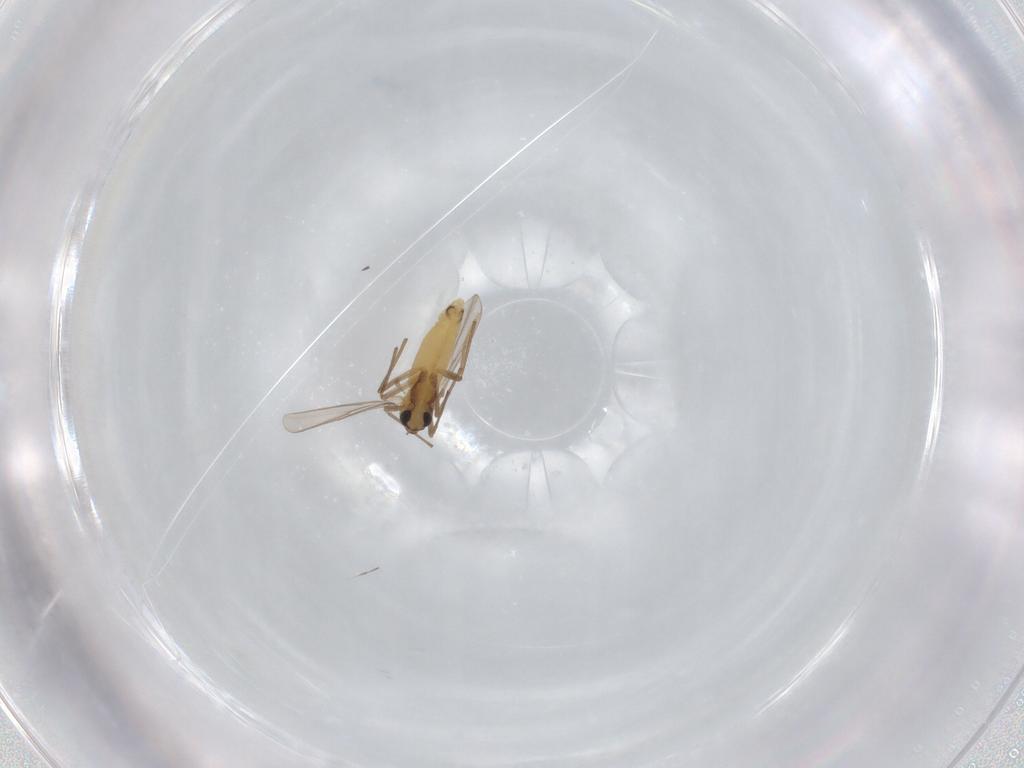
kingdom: Animalia
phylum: Arthropoda
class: Insecta
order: Diptera
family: Chironomidae
